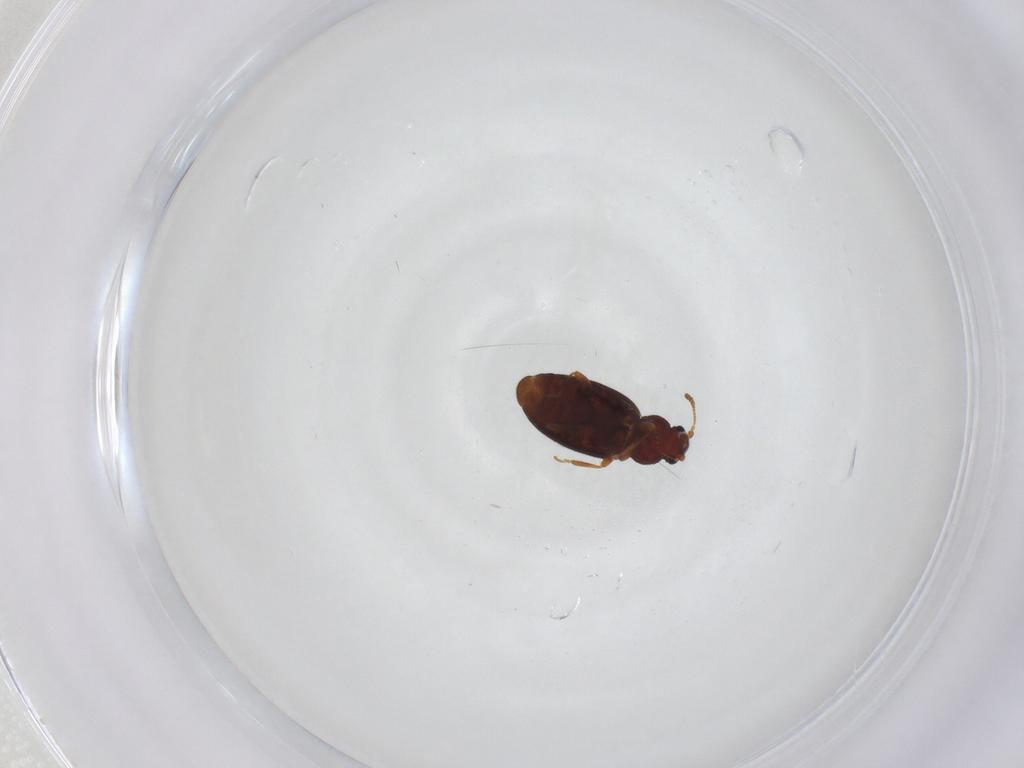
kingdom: Animalia
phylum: Arthropoda
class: Insecta
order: Coleoptera
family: Latridiidae
